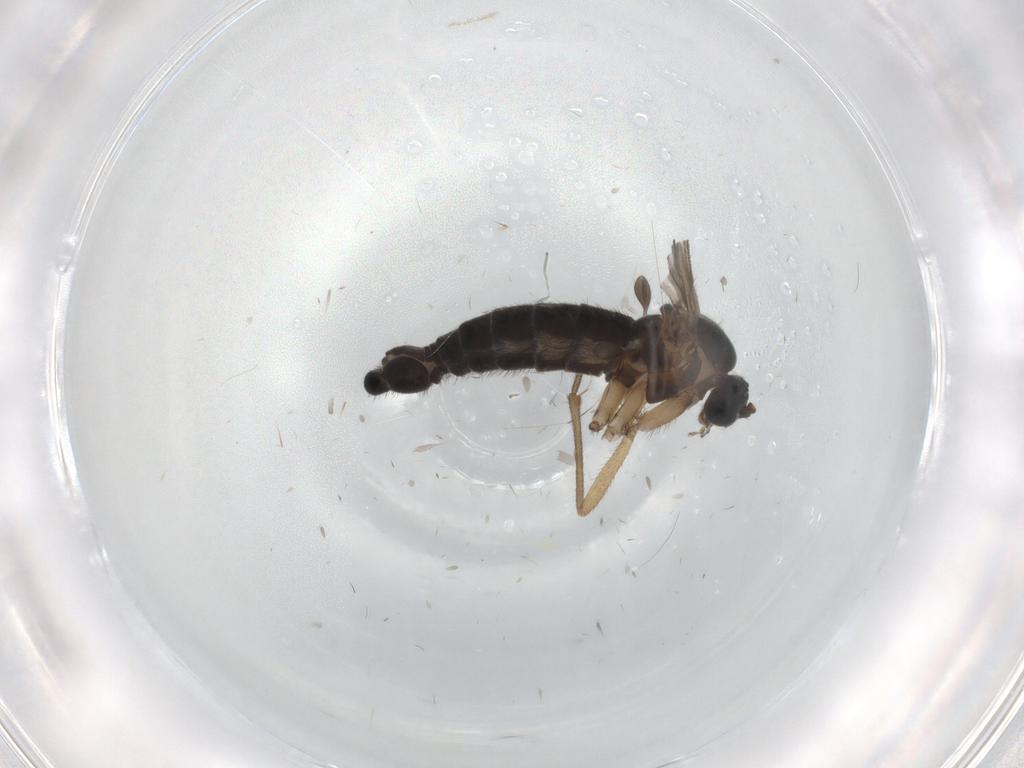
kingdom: Animalia
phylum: Arthropoda
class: Insecta
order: Diptera
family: Sciaridae
